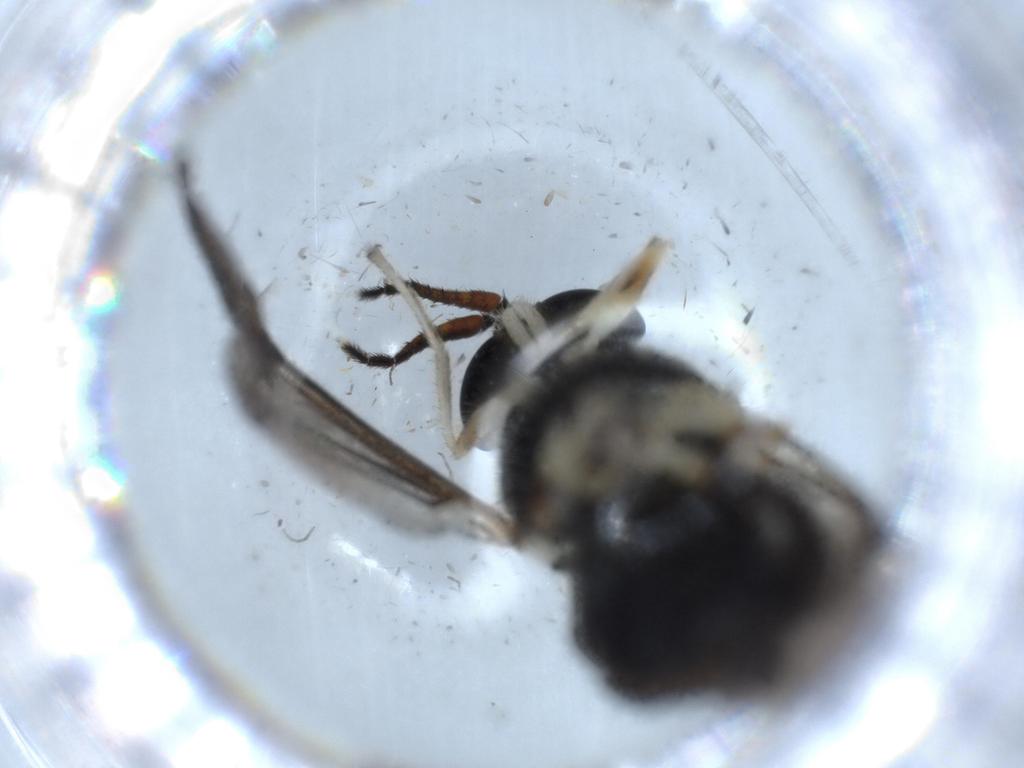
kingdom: Animalia
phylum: Arthropoda
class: Insecta
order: Diptera
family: Stratiomyidae
